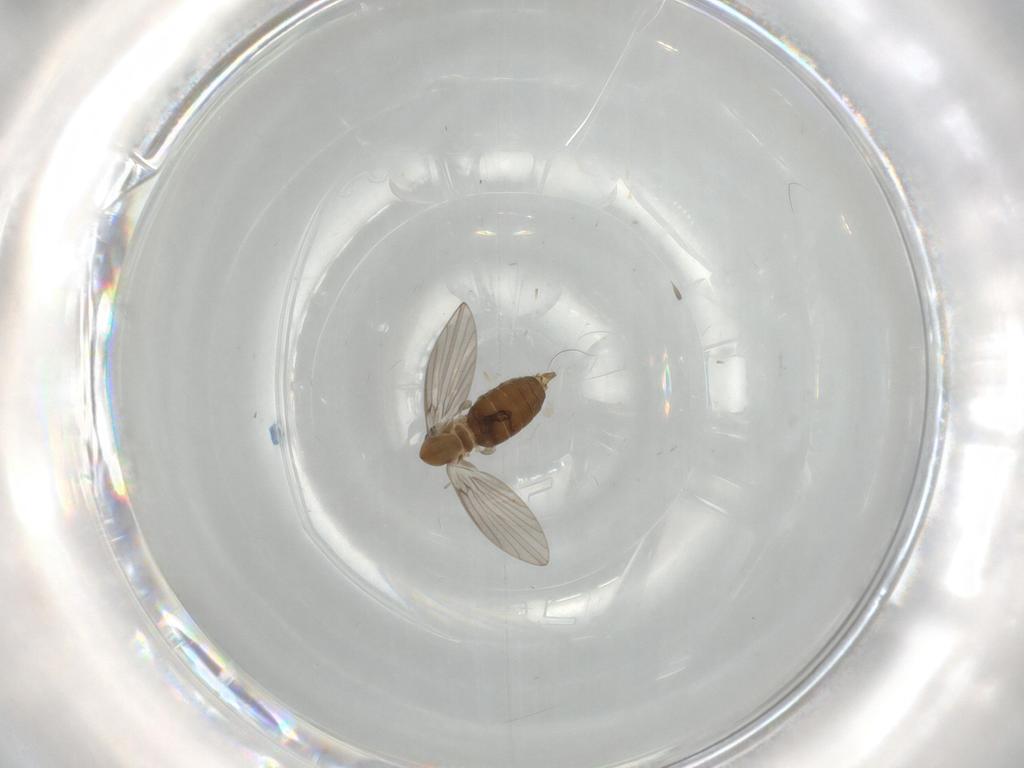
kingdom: Animalia
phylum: Arthropoda
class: Insecta
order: Diptera
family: Psychodidae
